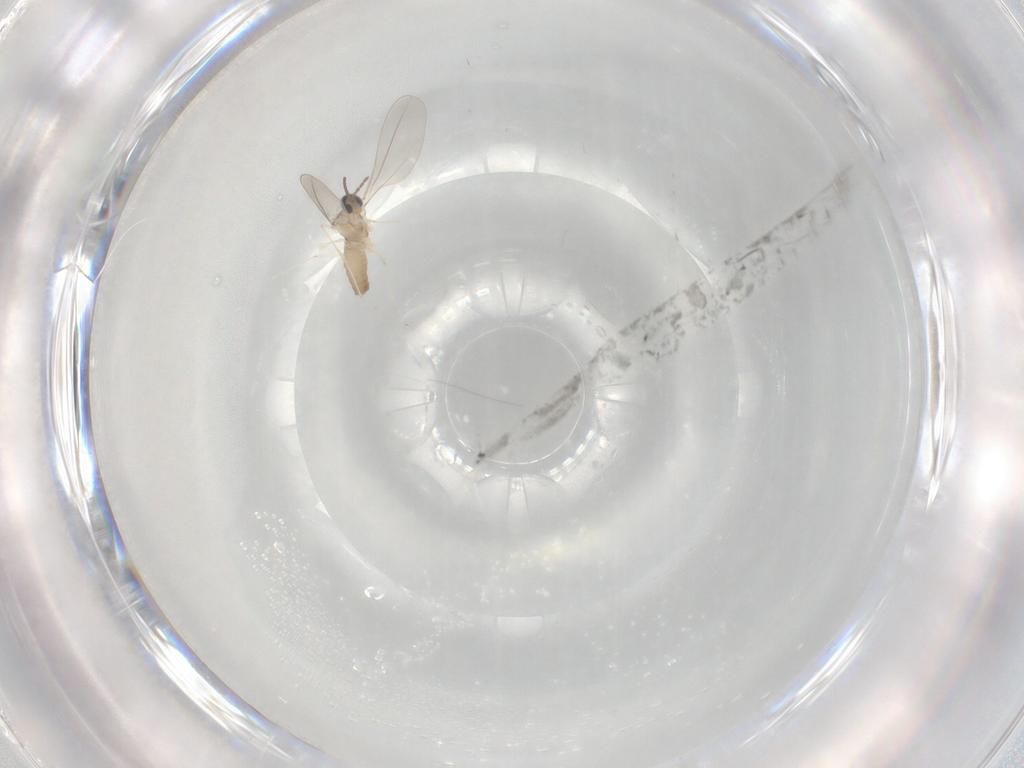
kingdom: Animalia
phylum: Arthropoda
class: Insecta
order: Diptera
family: Cecidomyiidae
